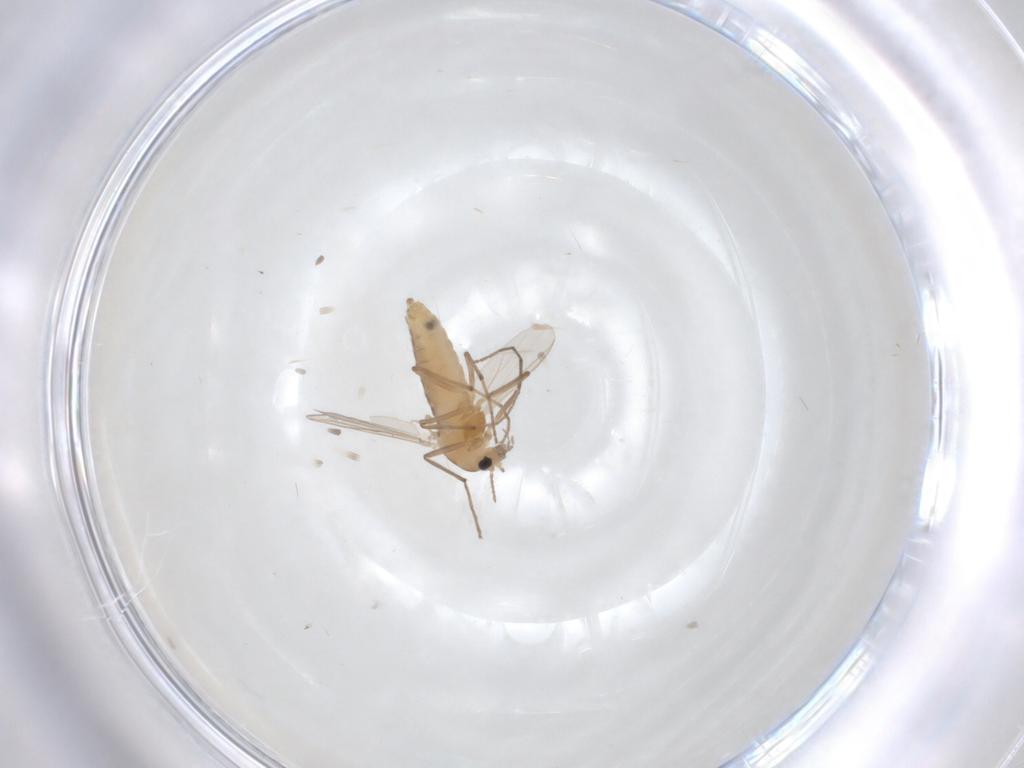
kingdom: Animalia
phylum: Arthropoda
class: Insecta
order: Diptera
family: Chironomidae
